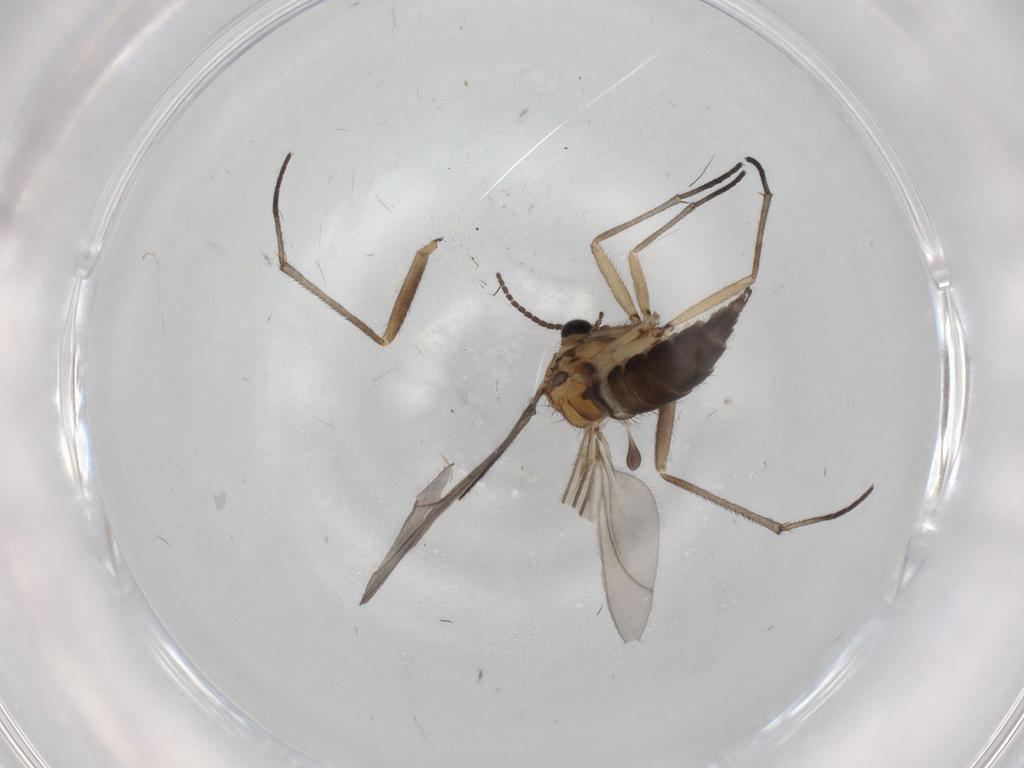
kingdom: Animalia
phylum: Arthropoda
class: Insecta
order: Diptera
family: Sciaridae
